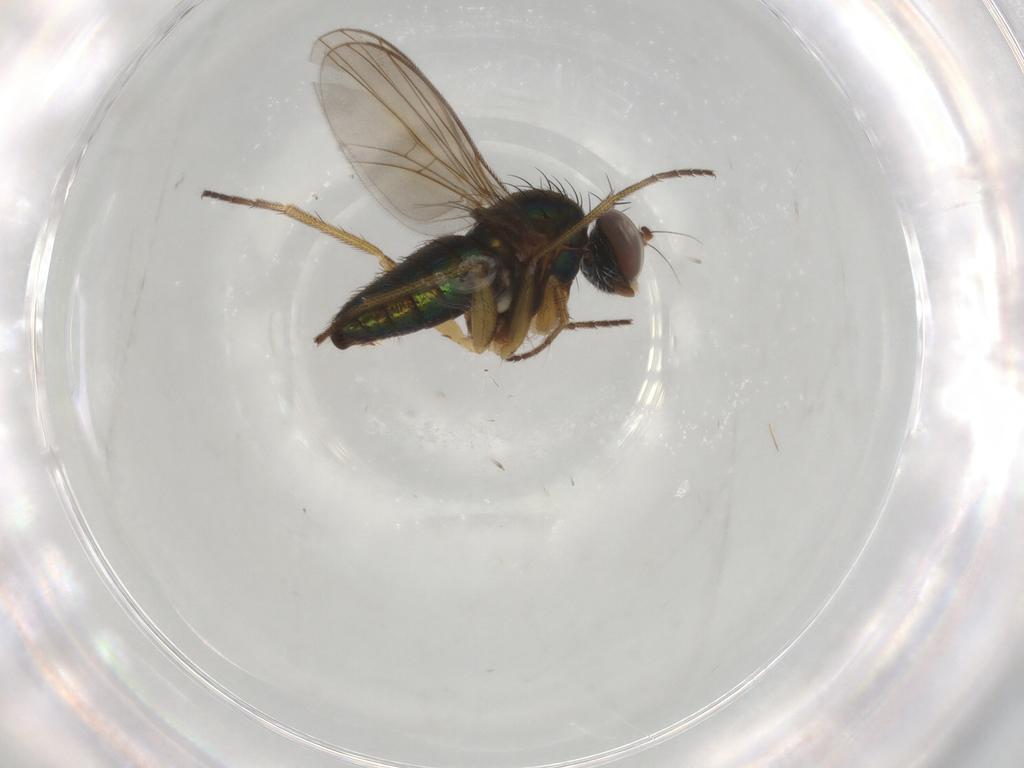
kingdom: Animalia
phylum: Arthropoda
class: Insecta
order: Diptera
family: Dolichopodidae
